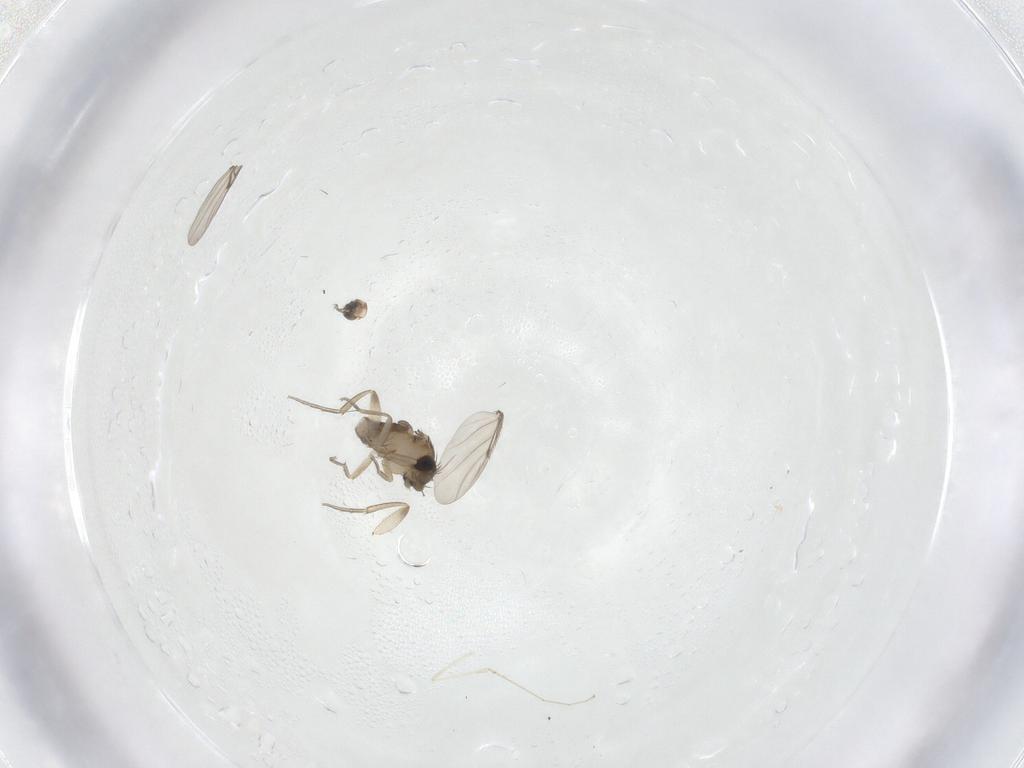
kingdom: Animalia
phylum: Arthropoda
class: Insecta
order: Diptera
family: Phoridae
